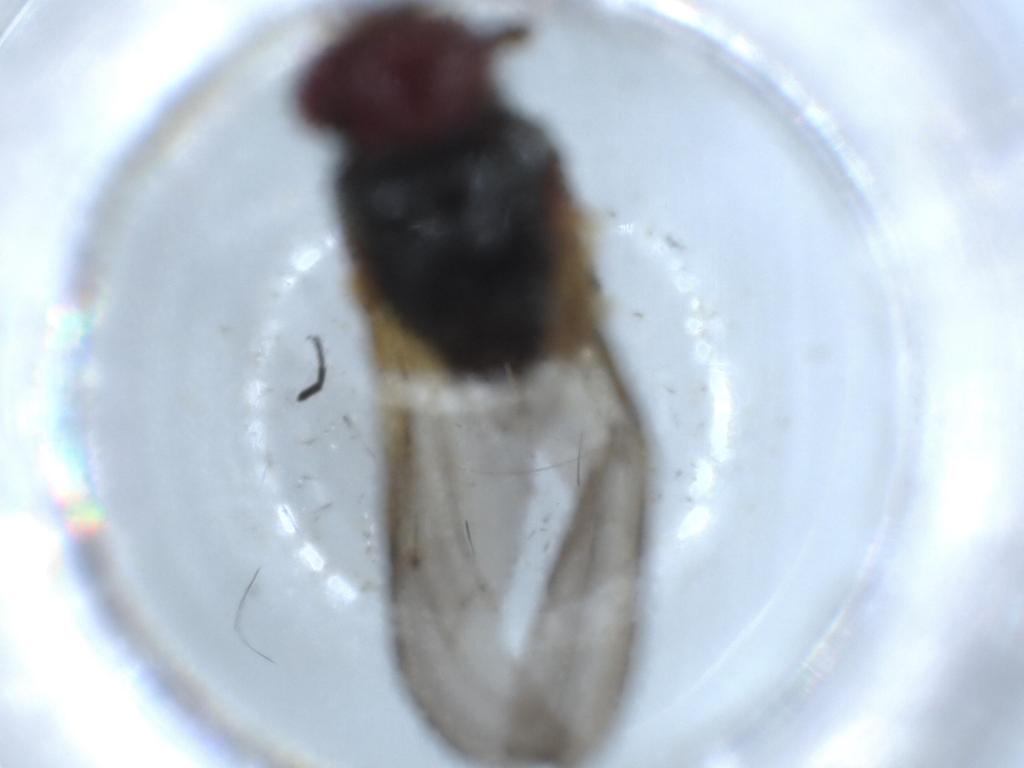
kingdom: Animalia
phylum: Arthropoda
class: Insecta
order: Diptera
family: Anthomyiidae
